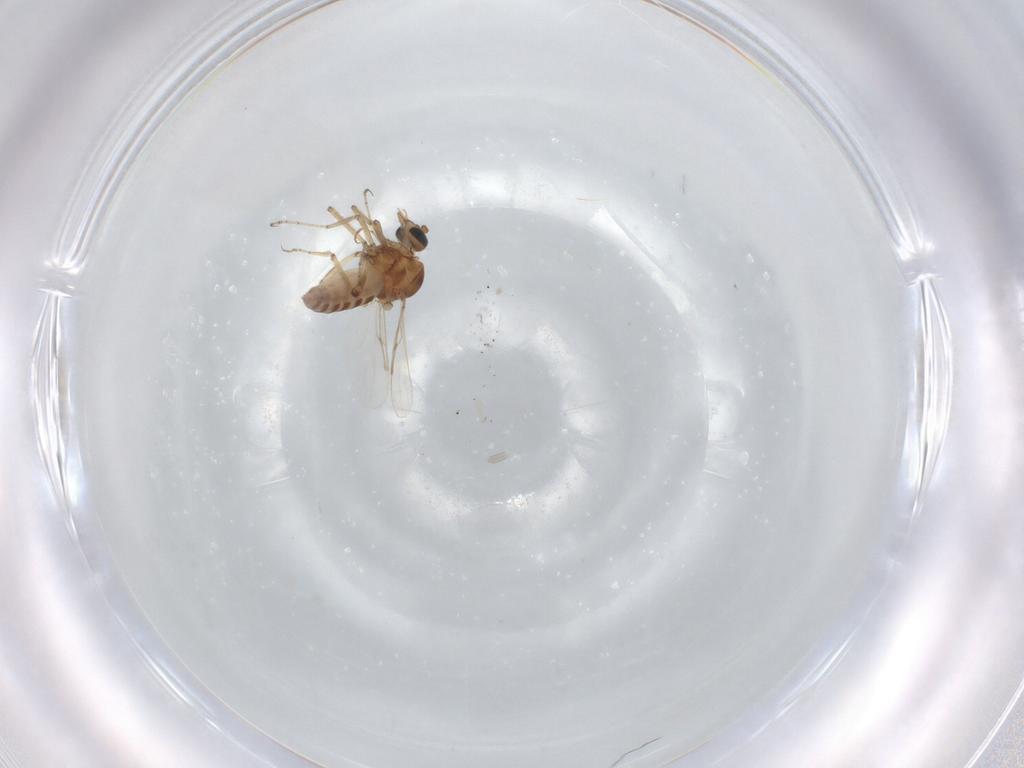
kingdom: Animalia
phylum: Arthropoda
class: Insecta
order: Diptera
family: Ceratopogonidae
